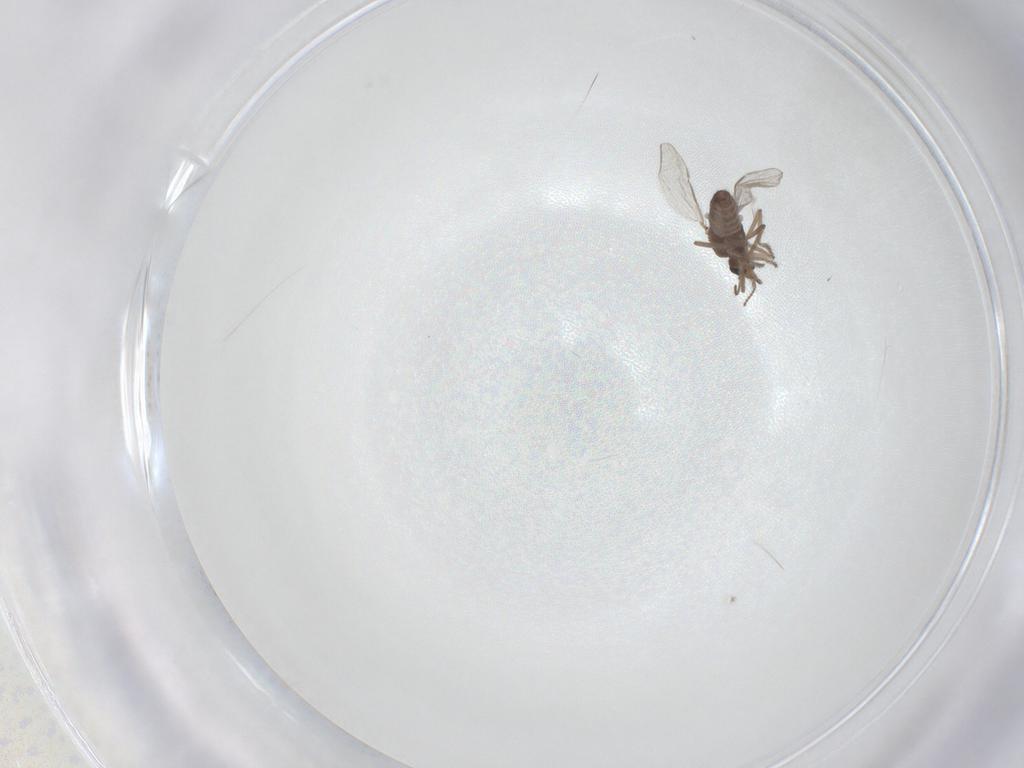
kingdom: Animalia
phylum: Arthropoda
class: Insecta
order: Diptera
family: Ceratopogonidae
